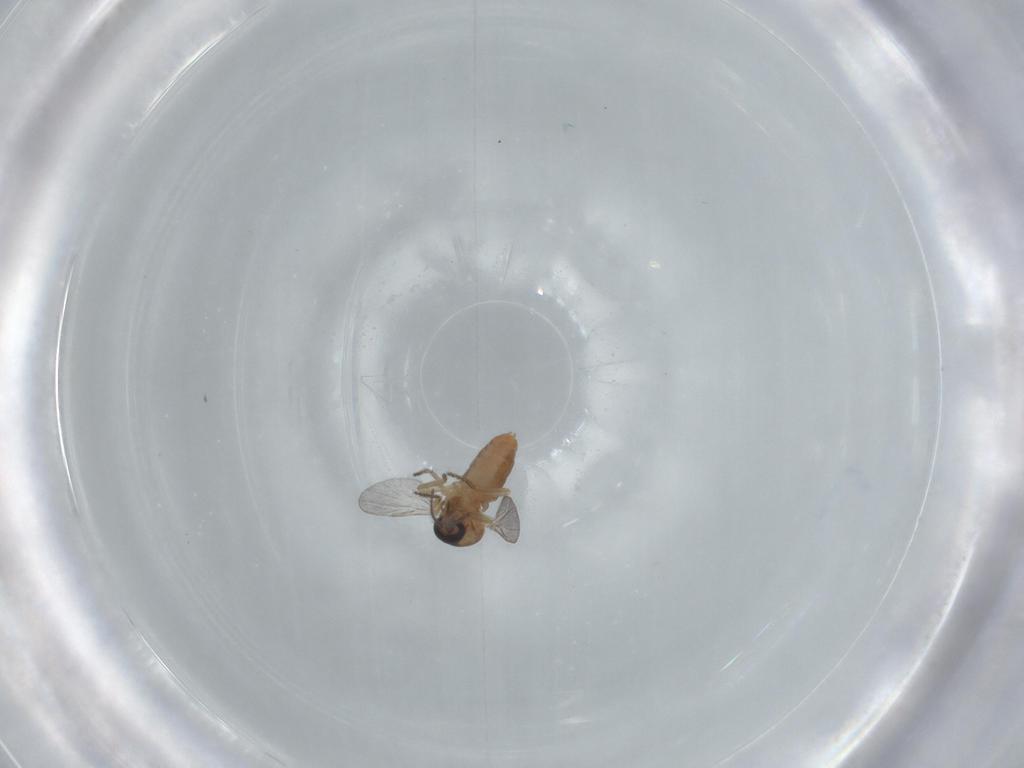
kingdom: Animalia
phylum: Arthropoda
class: Insecta
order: Diptera
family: Ceratopogonidae
